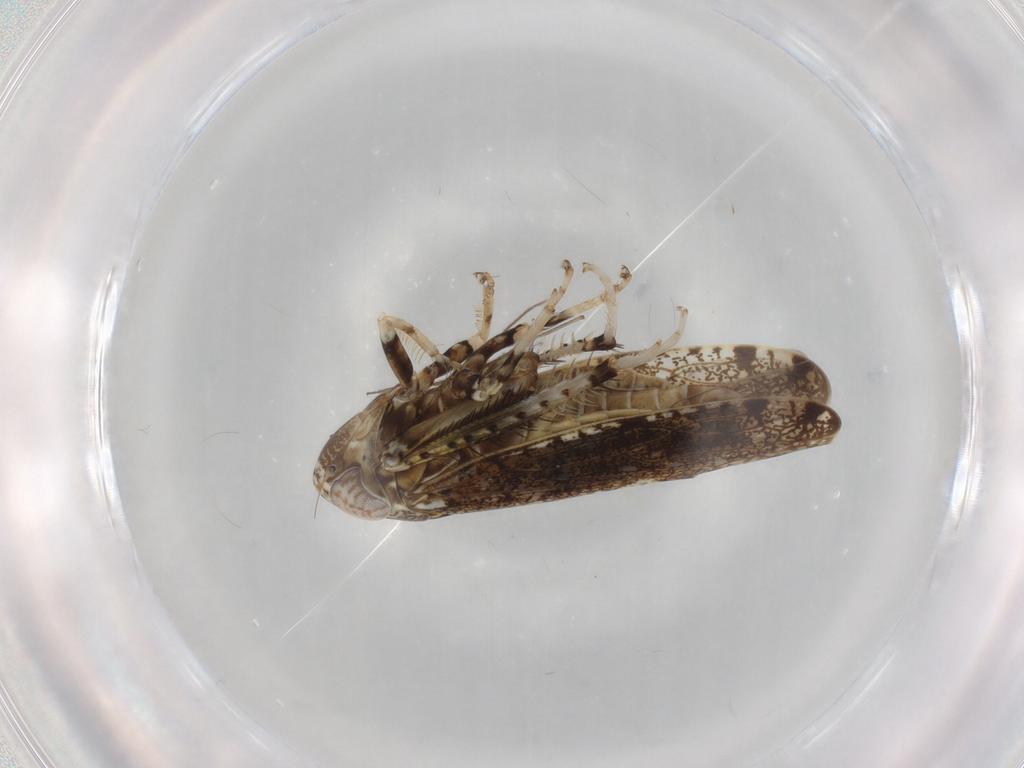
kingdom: Animalia
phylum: Arthropoda
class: Insecta
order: Hemiptera
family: Cicadellidae
